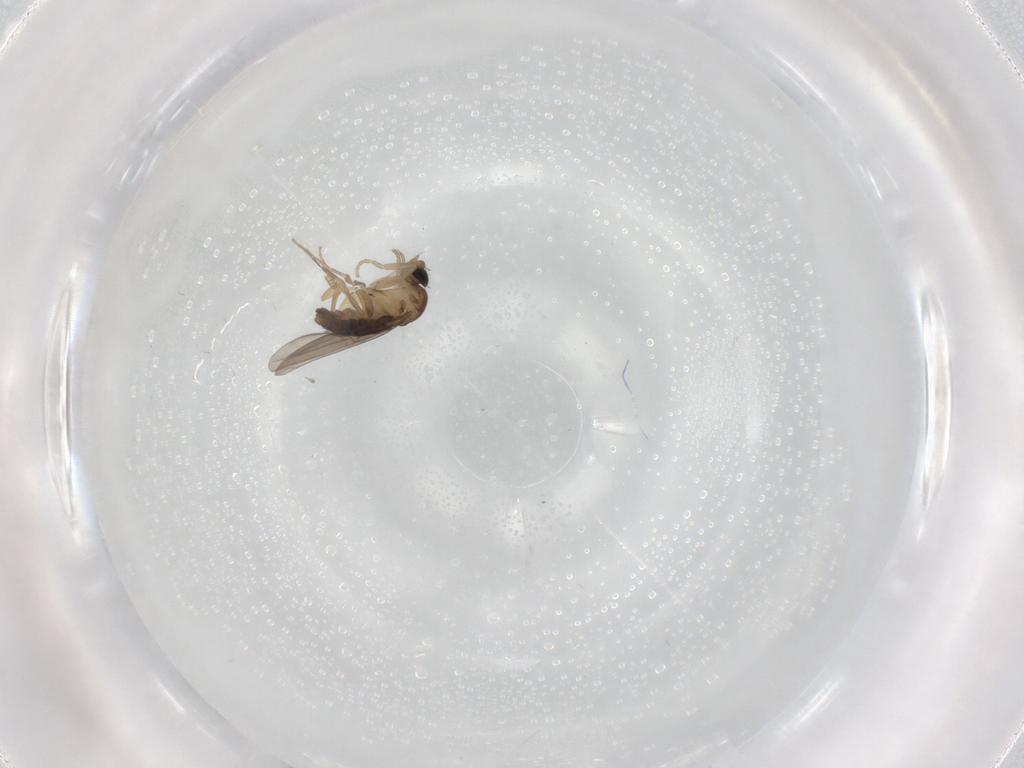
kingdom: Animalia
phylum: Arthropoda
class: Insecta
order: Diptera
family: Phoridae
